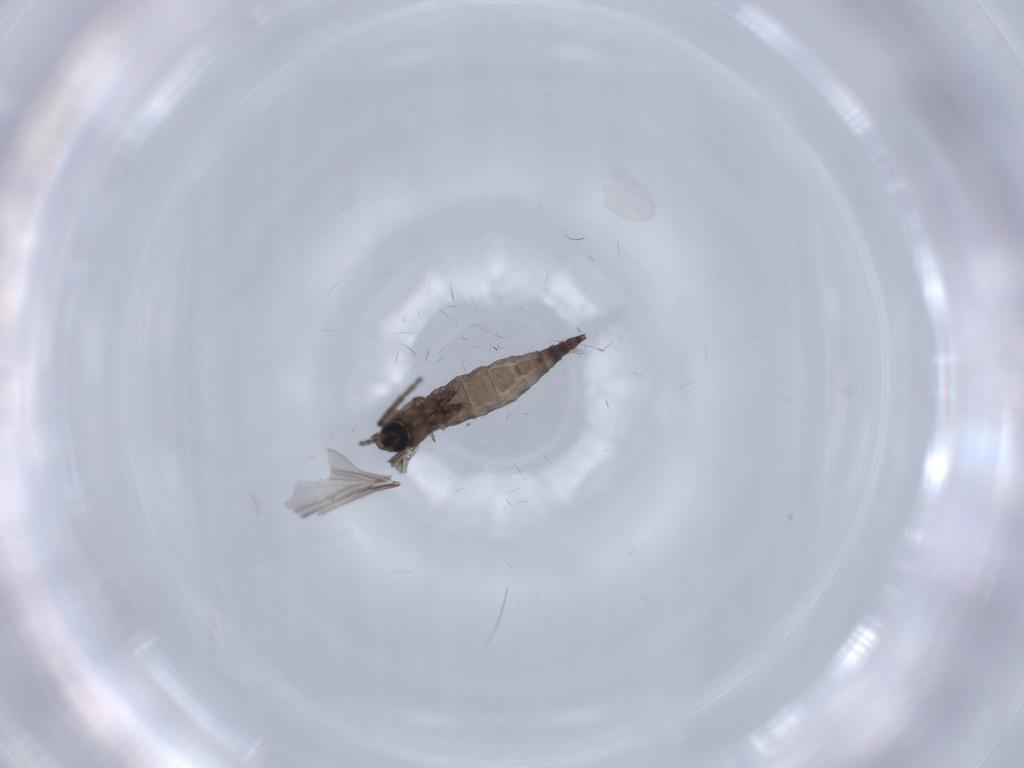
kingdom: Animalia
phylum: Arthropoda
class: Insecta
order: Diptera
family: Sciaridae
